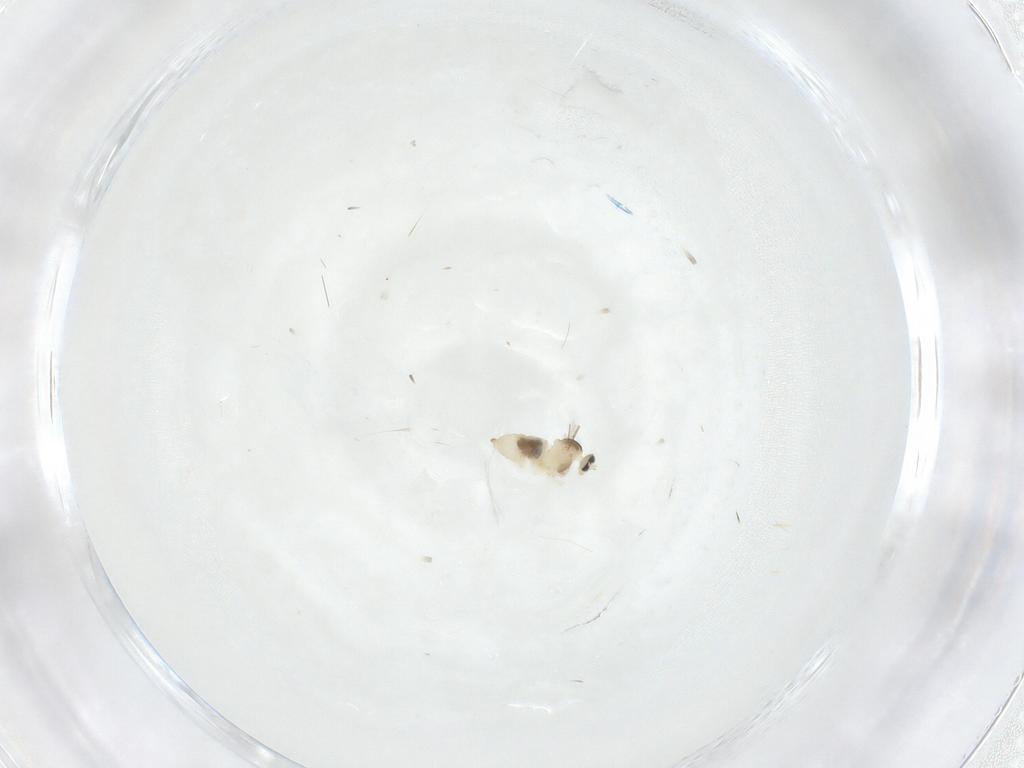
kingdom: Animalia
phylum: Arthropoda
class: Insecta
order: Diptera
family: Cecidomyiidae
